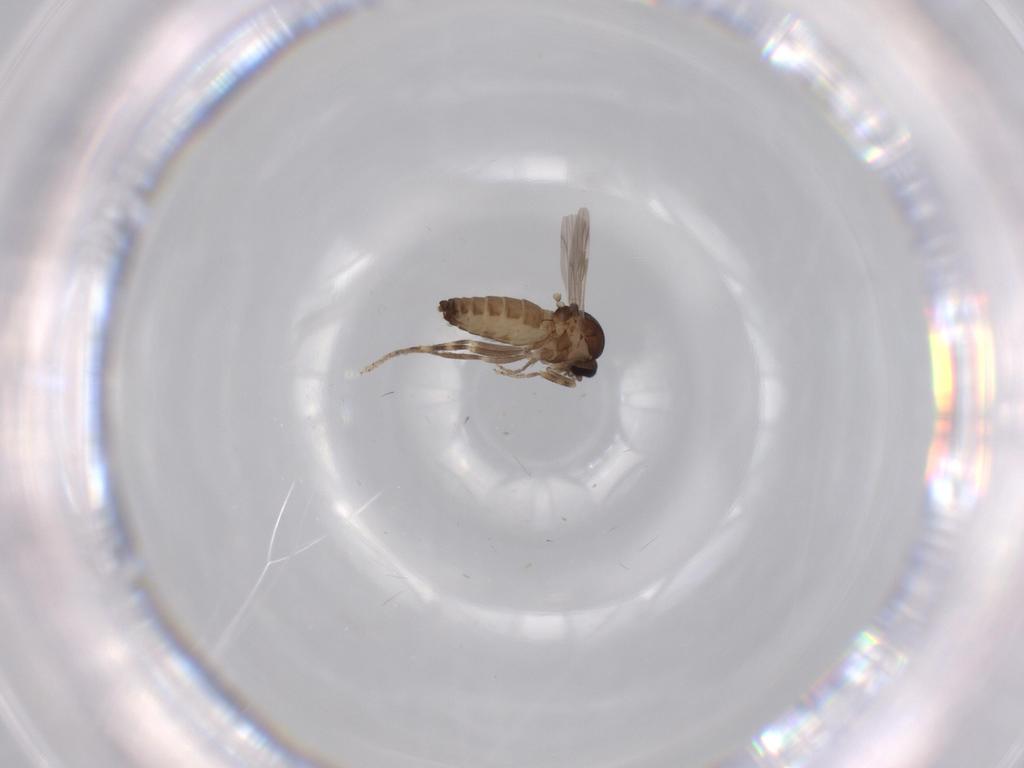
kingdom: Animalia
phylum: Arthropoda
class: Insecta
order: Diptera
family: Ceratopogonidae
